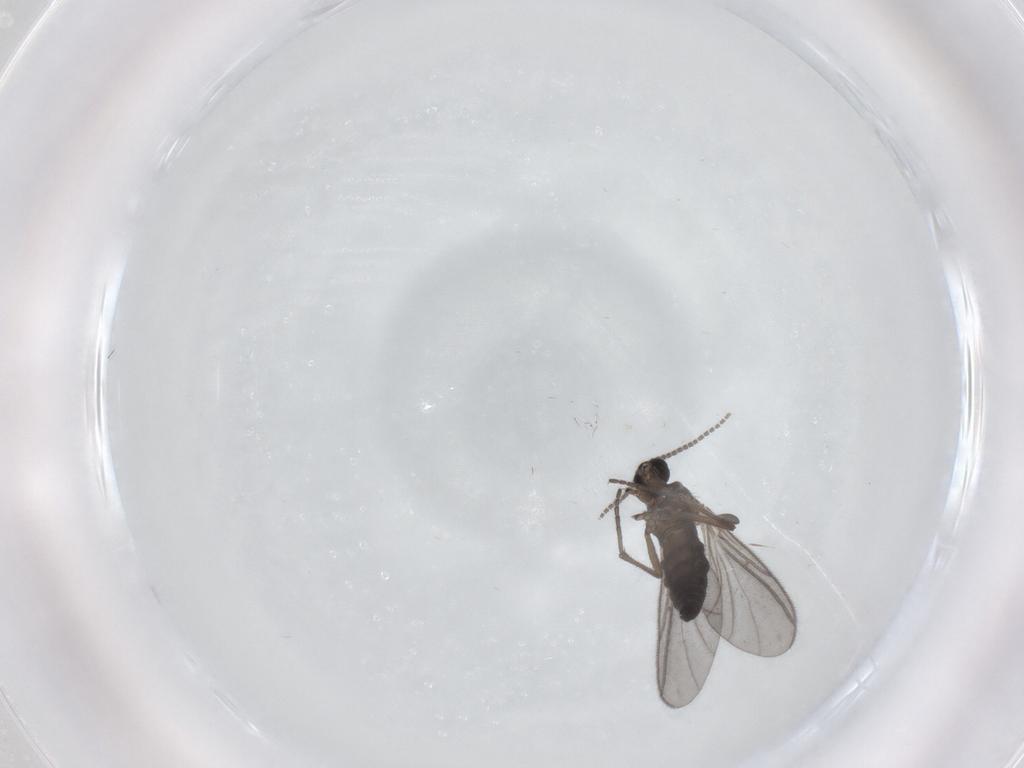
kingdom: Animalia
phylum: Arthropoda
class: Insecta
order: Diptera
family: Sciaridae
